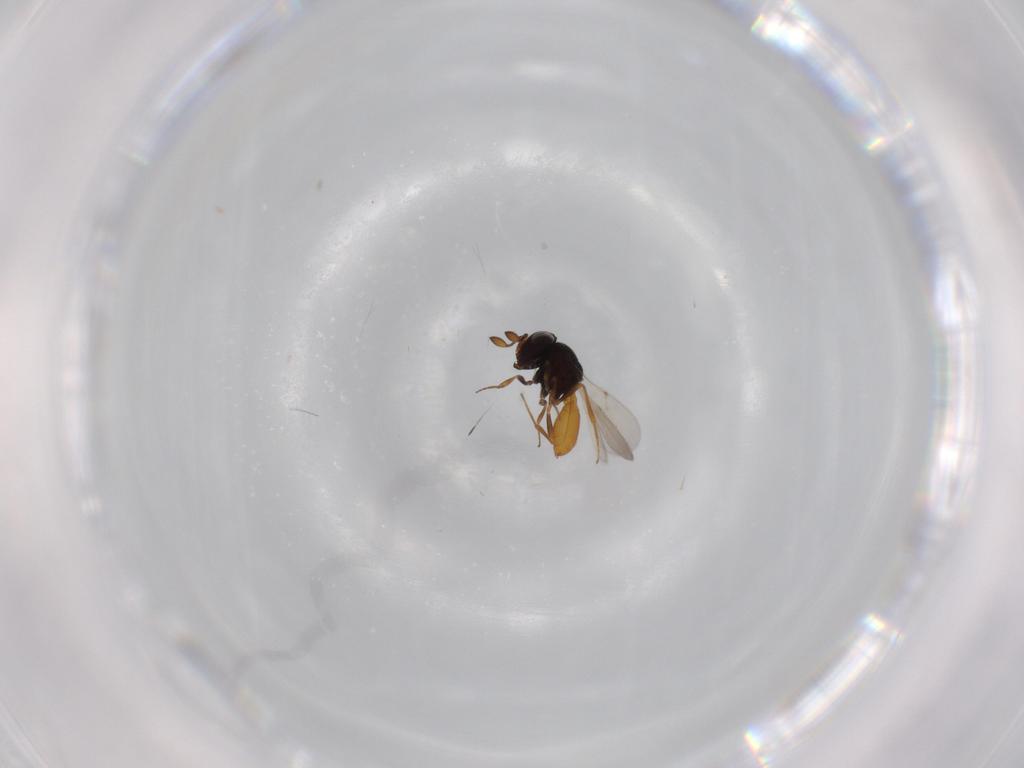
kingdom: Animalia
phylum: Arthropoda
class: Insecta
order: Hymenoptera
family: Scelionidae
